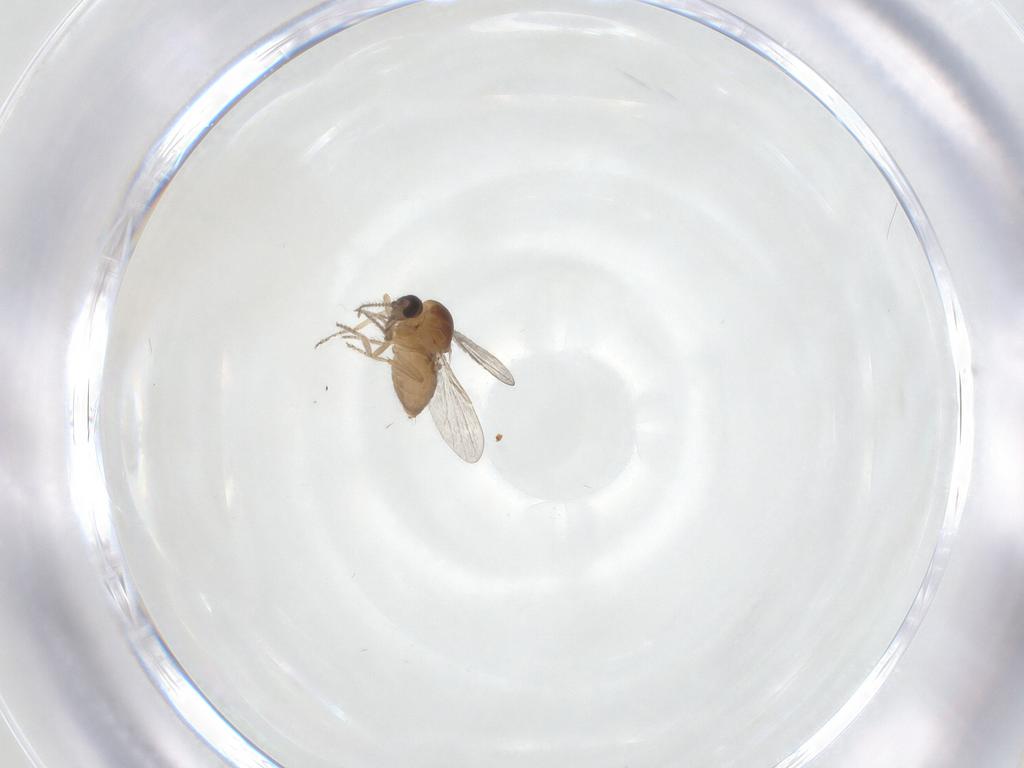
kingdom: Animalia
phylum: Arthropoda
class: Insecta
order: Diptera
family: Ceratopogonidae
